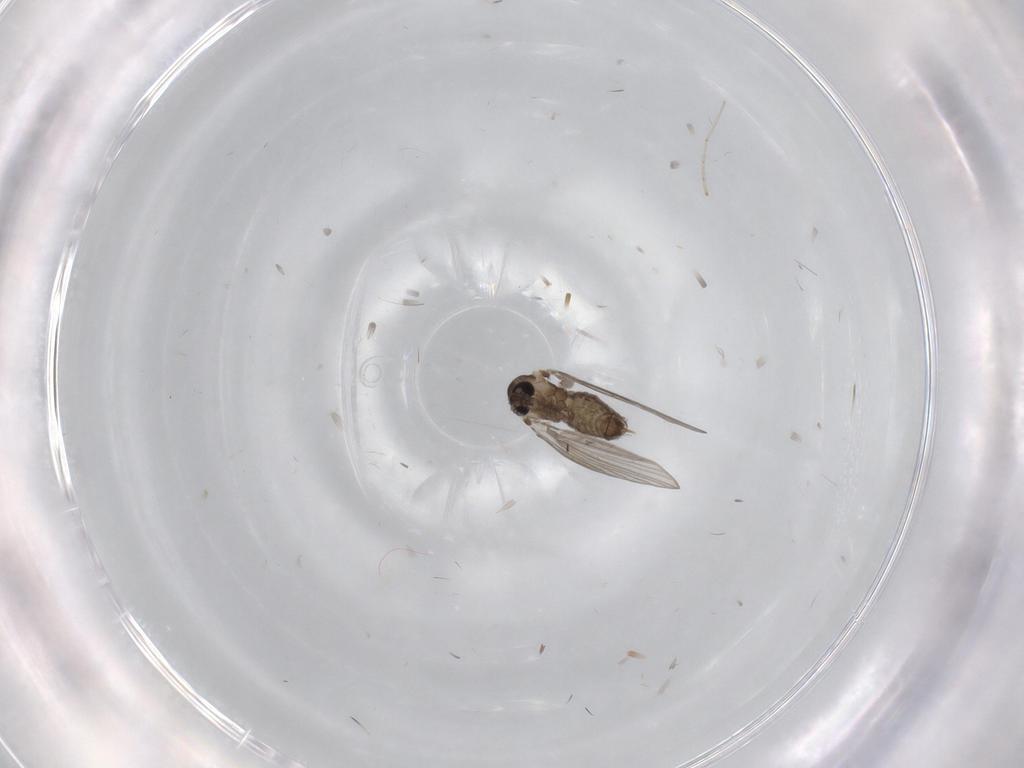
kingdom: Animalia
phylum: Arthropoda
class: Insecta
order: Diptera
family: Psychodidae
